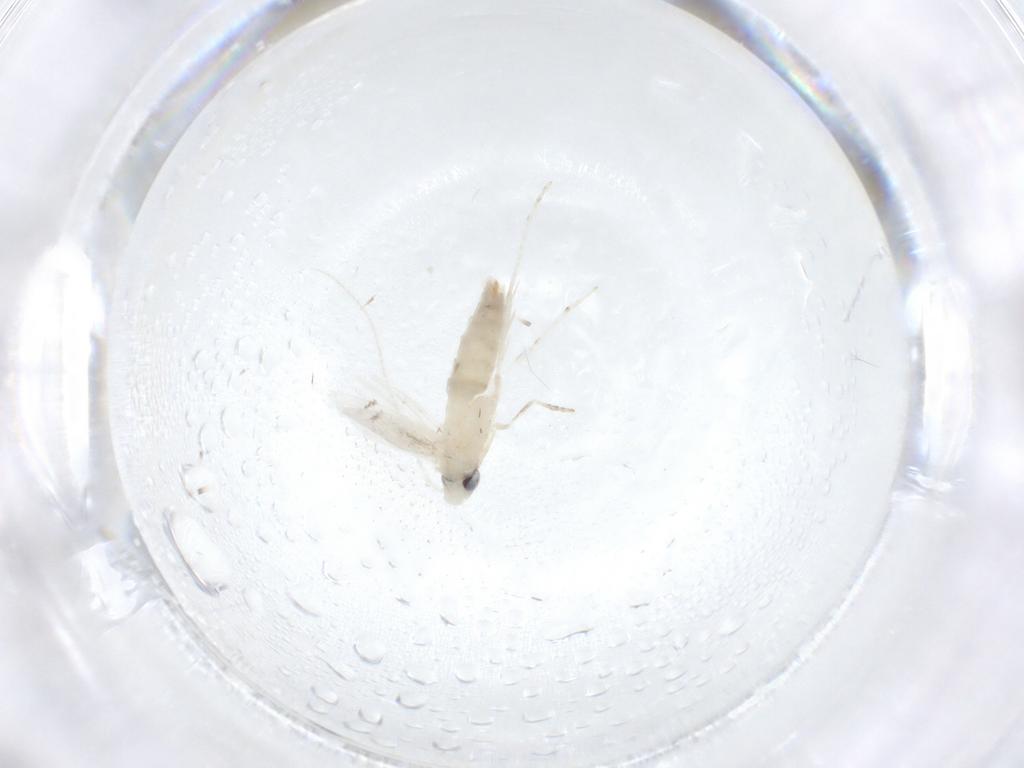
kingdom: Animalia
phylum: Arthropoda
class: Insecta
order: Lepidoptera
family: Gracillariidae
